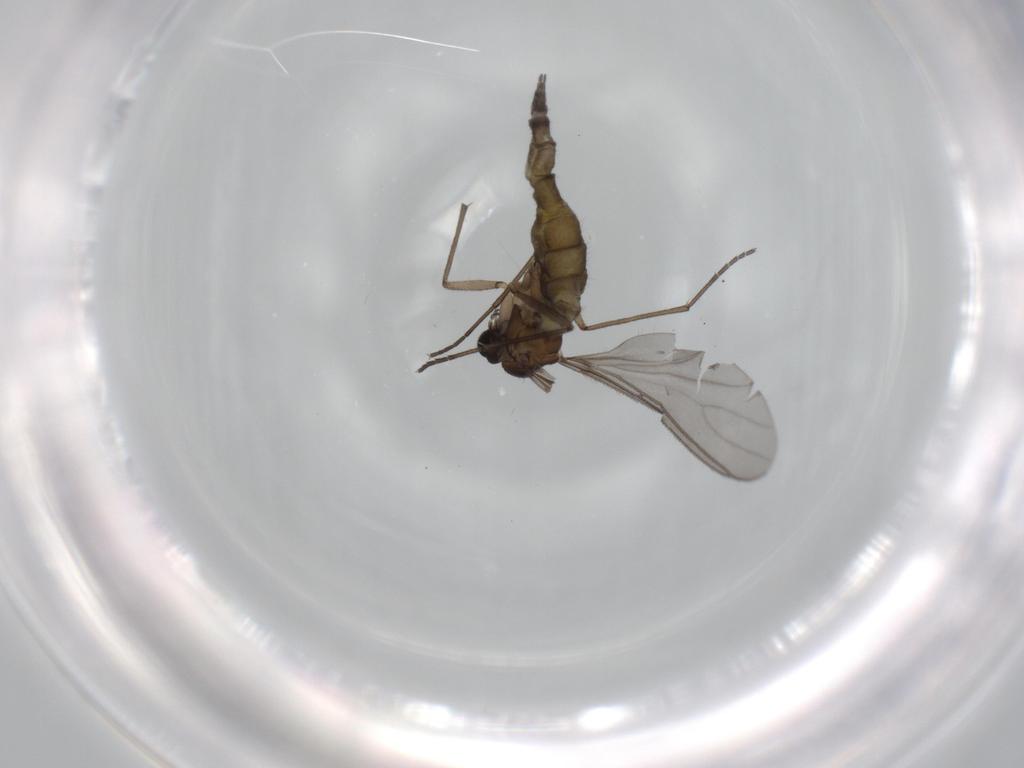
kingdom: Animalia
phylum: Arthropoda
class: Insecta
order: Diptera
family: Sciaridae
